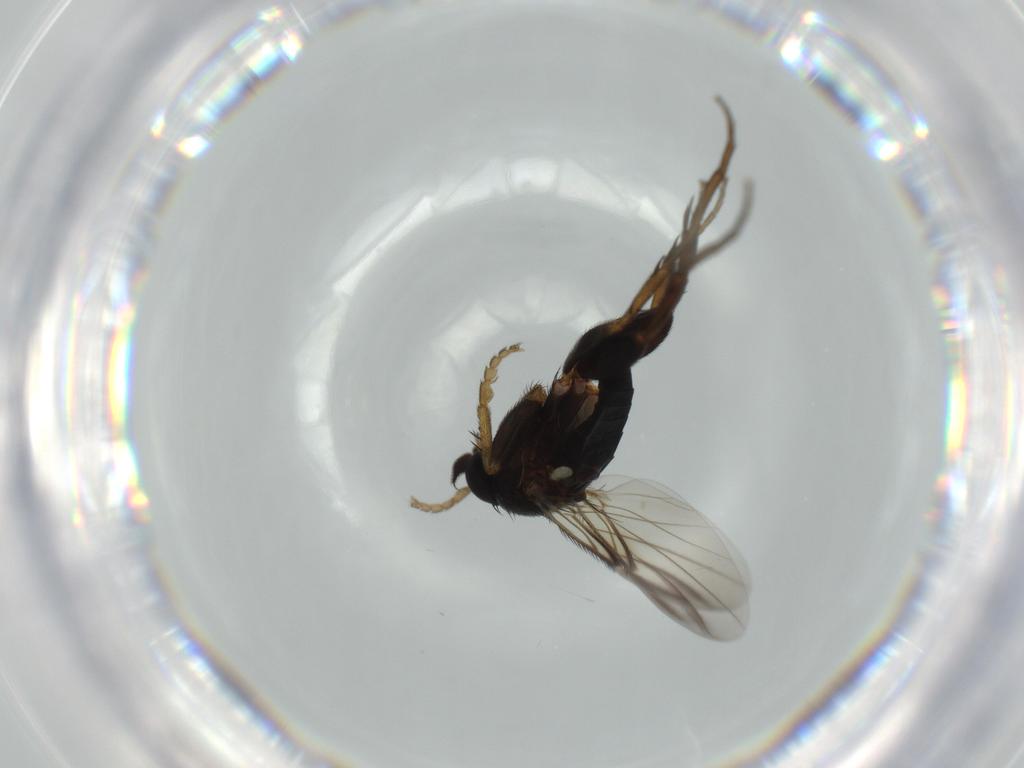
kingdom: Animalia
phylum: Arthropoda
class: Insecta
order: Diptera
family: Phoridae
